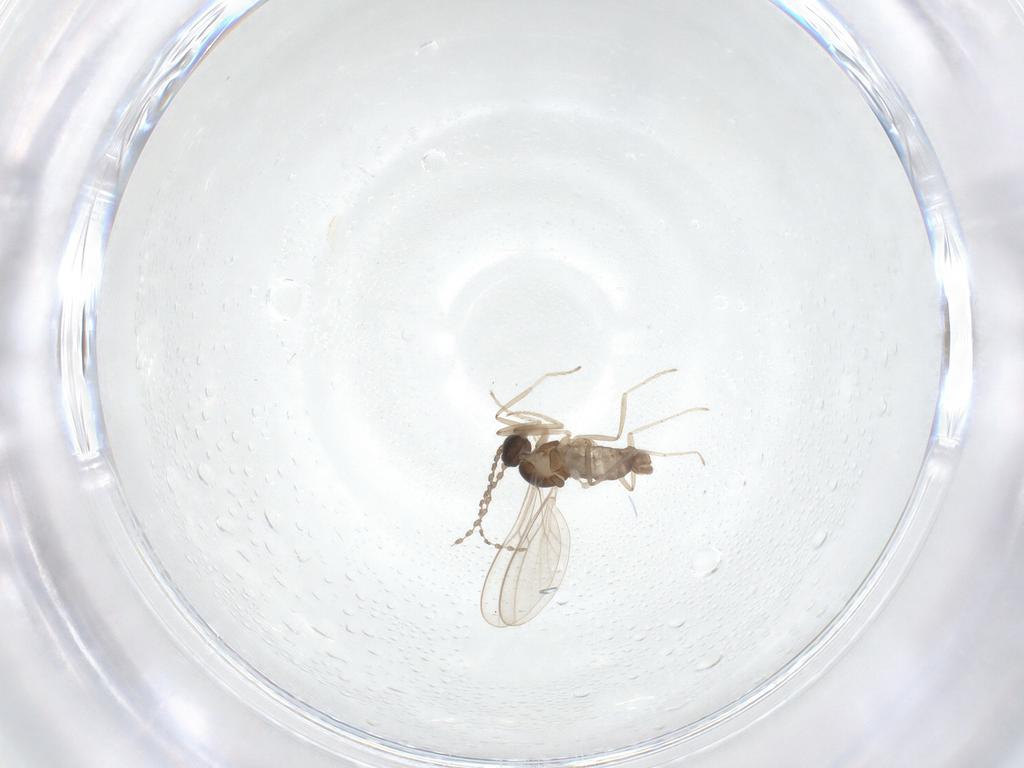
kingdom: Animalia
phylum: Arthropoda
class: Insecta
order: Diptera
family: Cecidomyiidae
